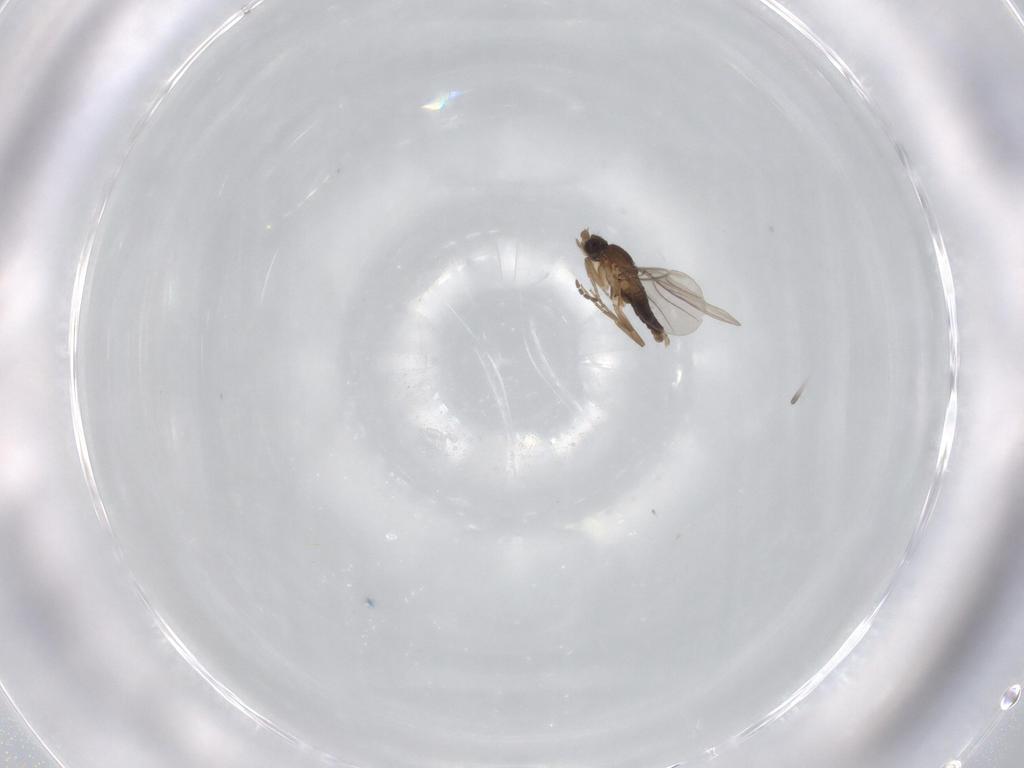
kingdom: Animalia
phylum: Arthropoda
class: Insecta
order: Diptera
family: Phoridae
